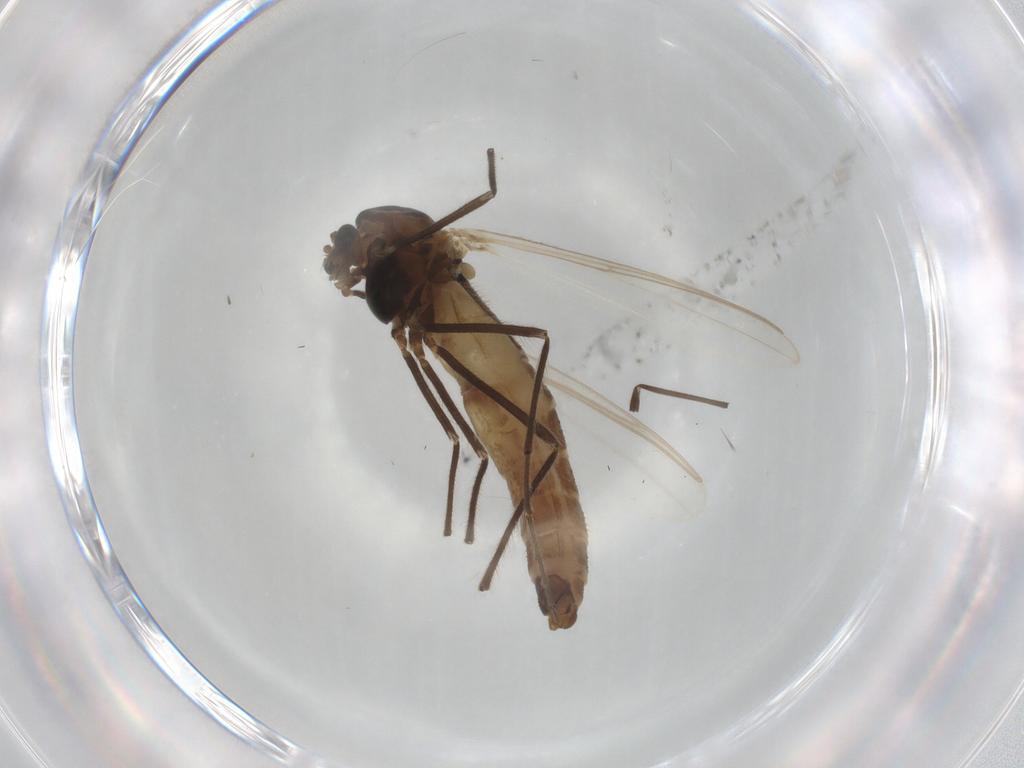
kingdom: Animalia
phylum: Arthropoda
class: Insecta
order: Diptera
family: Chironomidae
